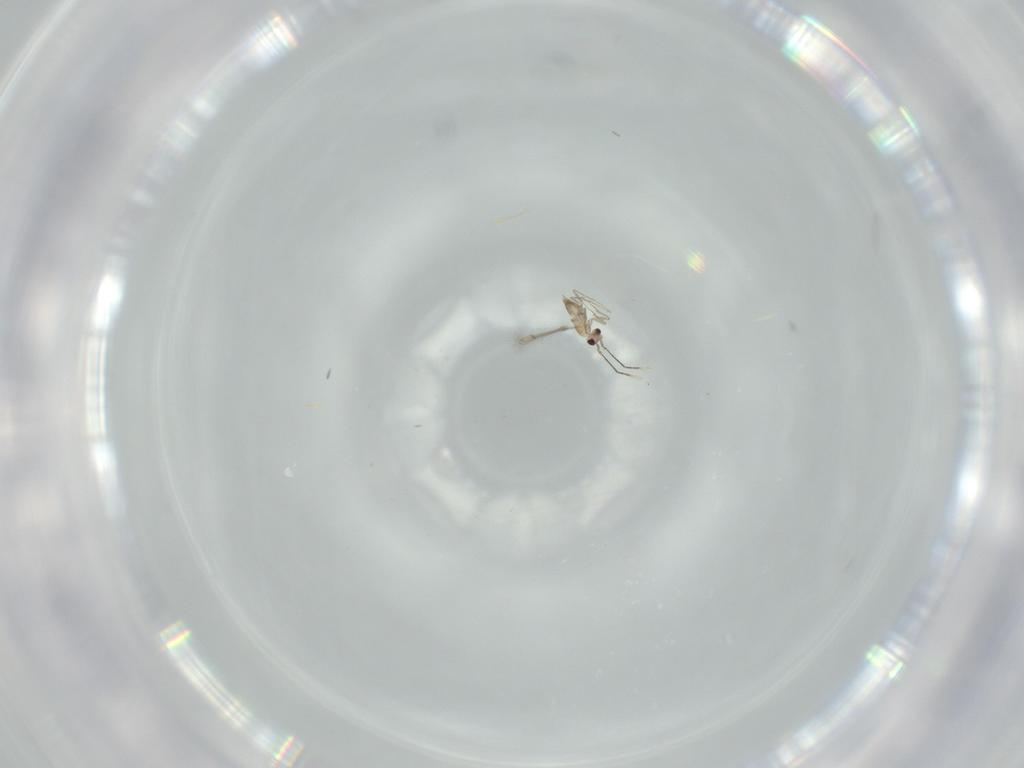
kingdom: Animalia
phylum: Arthropoda
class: Insecta
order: Hymenoptera
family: Mymaridae
